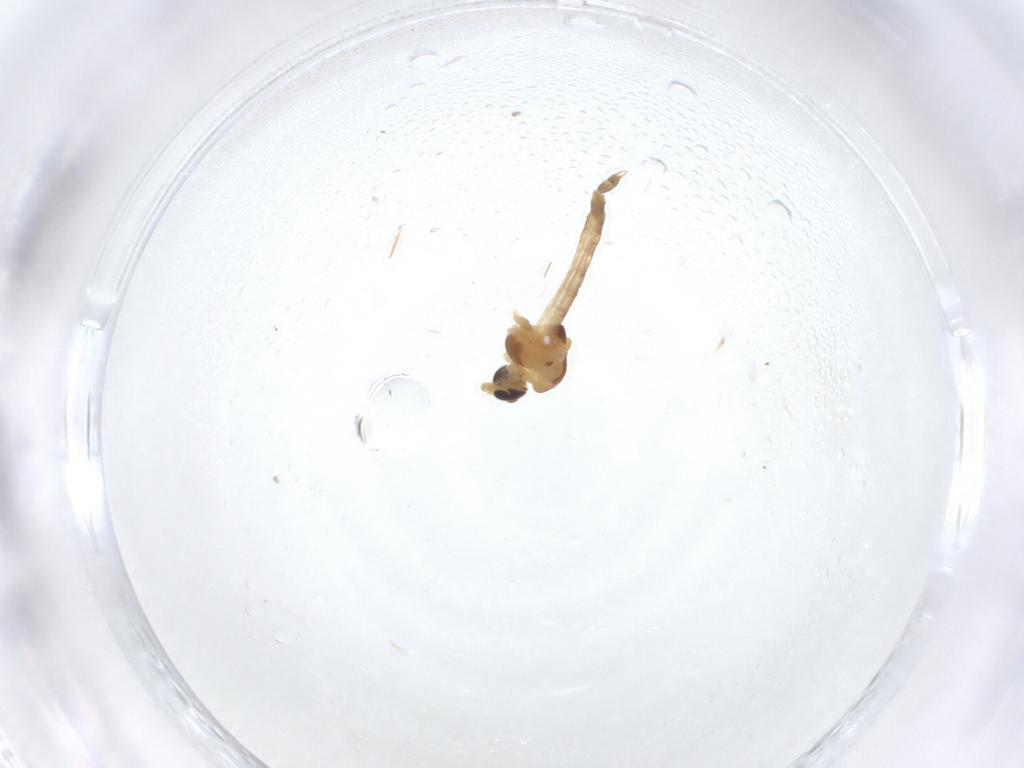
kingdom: Animalia
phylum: Arthropoda
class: Insecta
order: Diptera
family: Chironomidae
